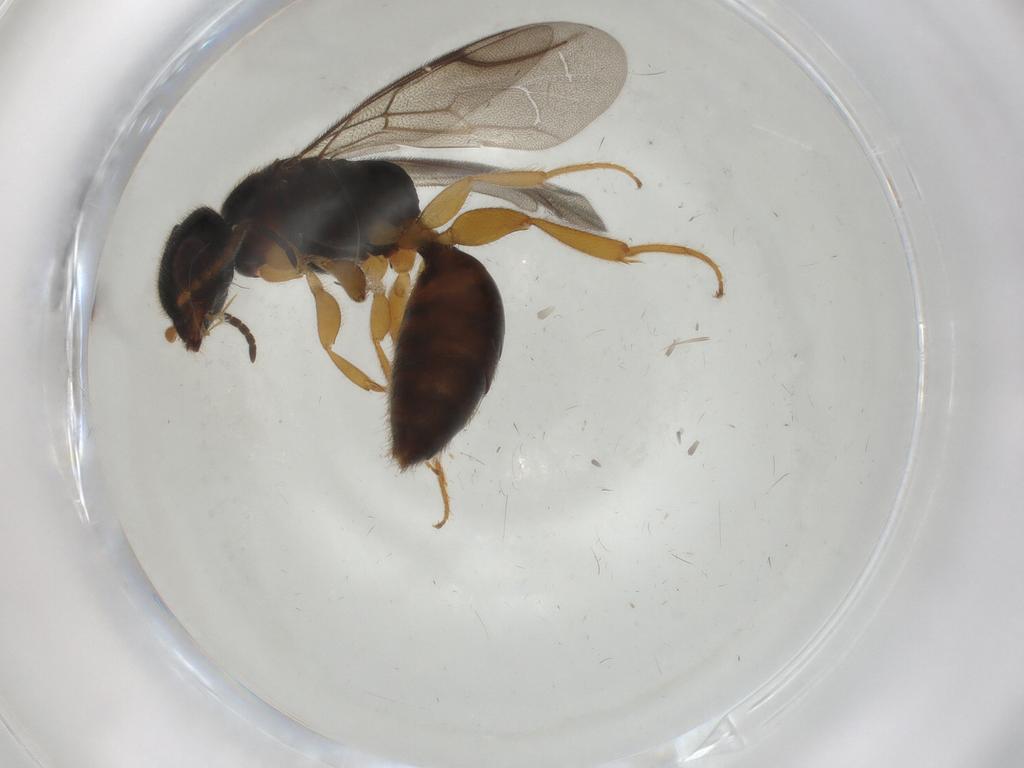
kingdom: Animalia
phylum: Arthropoda
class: Insecta
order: Hymenoptera
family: Bethylidae
